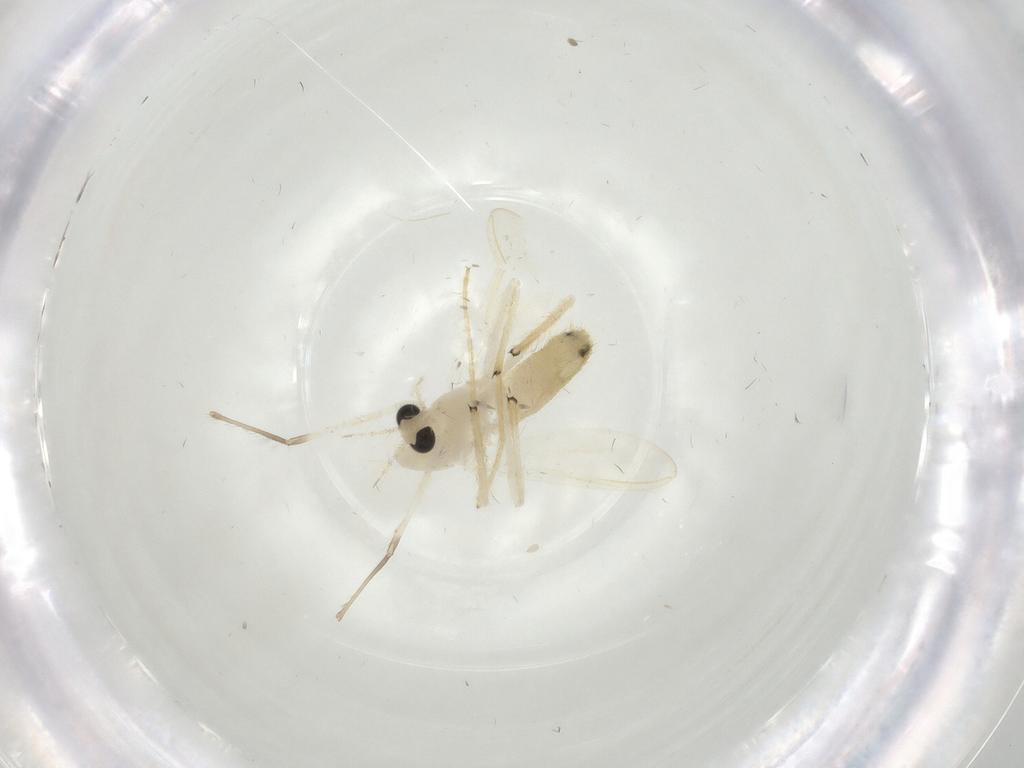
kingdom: Animalia
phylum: Arthropoda
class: Insecta
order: Diptera
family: Chironomidae
